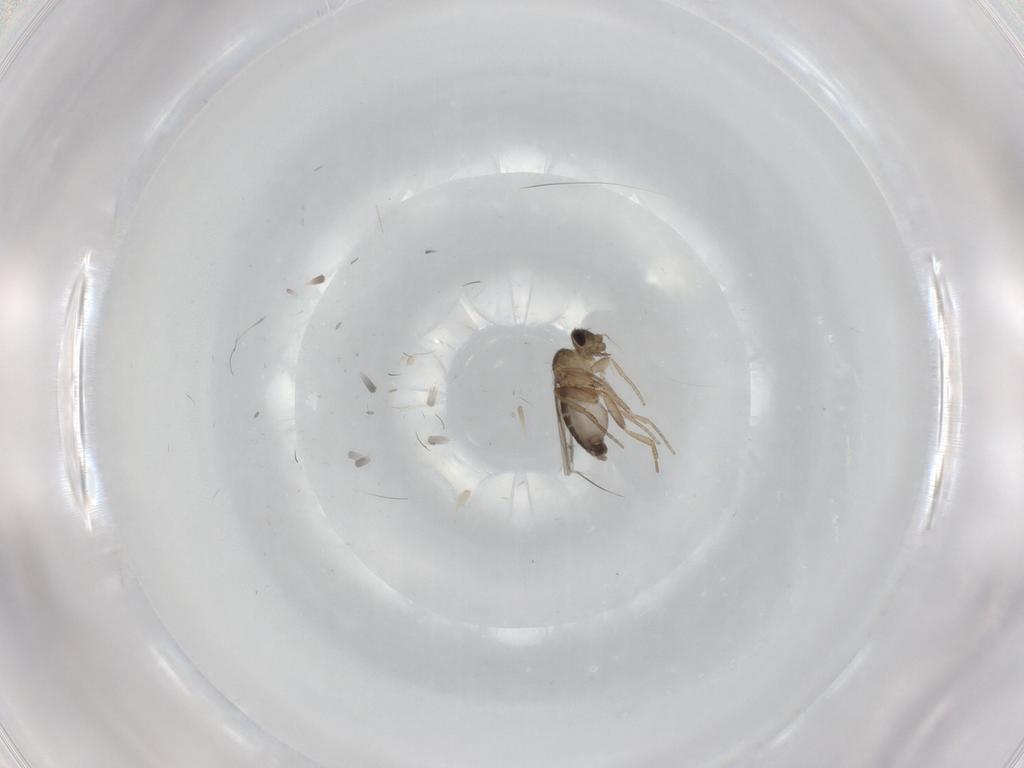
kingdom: Animalia
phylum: Arthropoda
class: Insecta
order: Diptera
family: Phoridae
